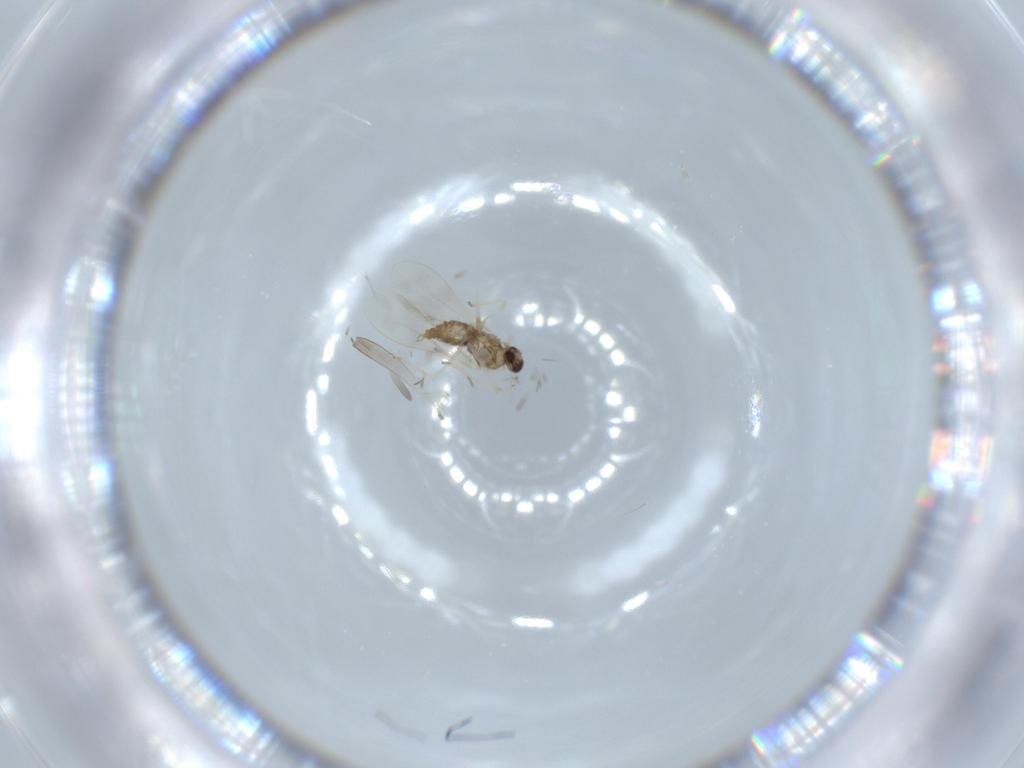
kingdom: Animalia
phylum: Arthropoda
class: Insecta
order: Diptera
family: Cecidomyiidae
